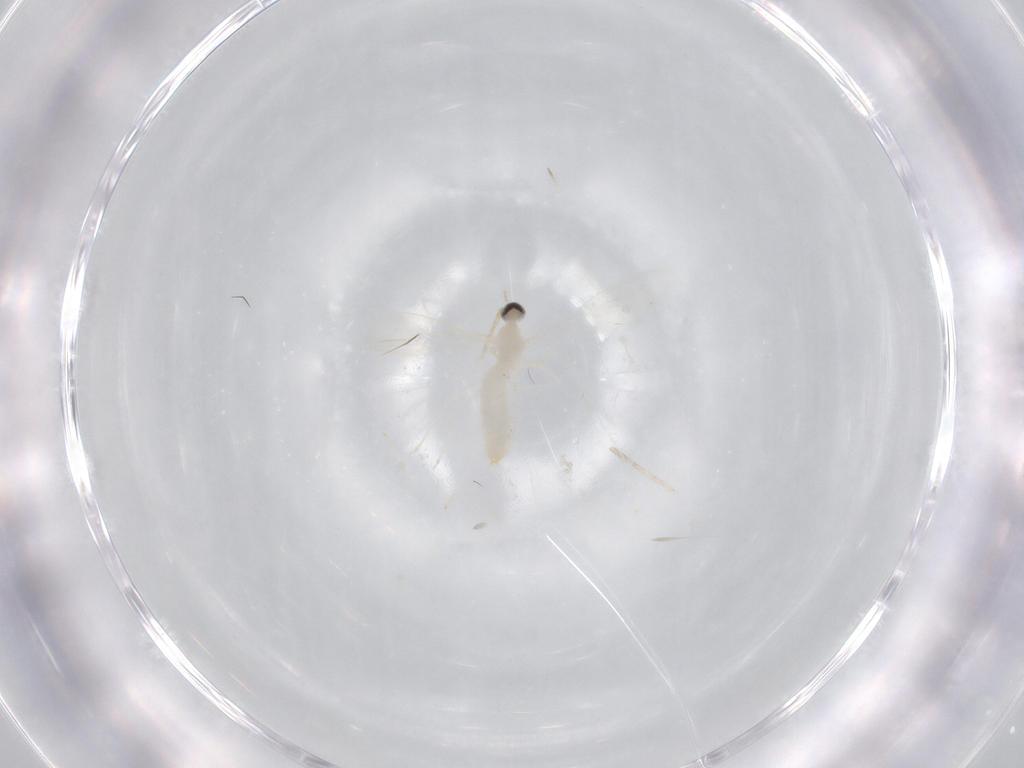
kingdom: Animalia
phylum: Arthropoda
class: Insecta
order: Diptera
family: Cecidomyiidae
